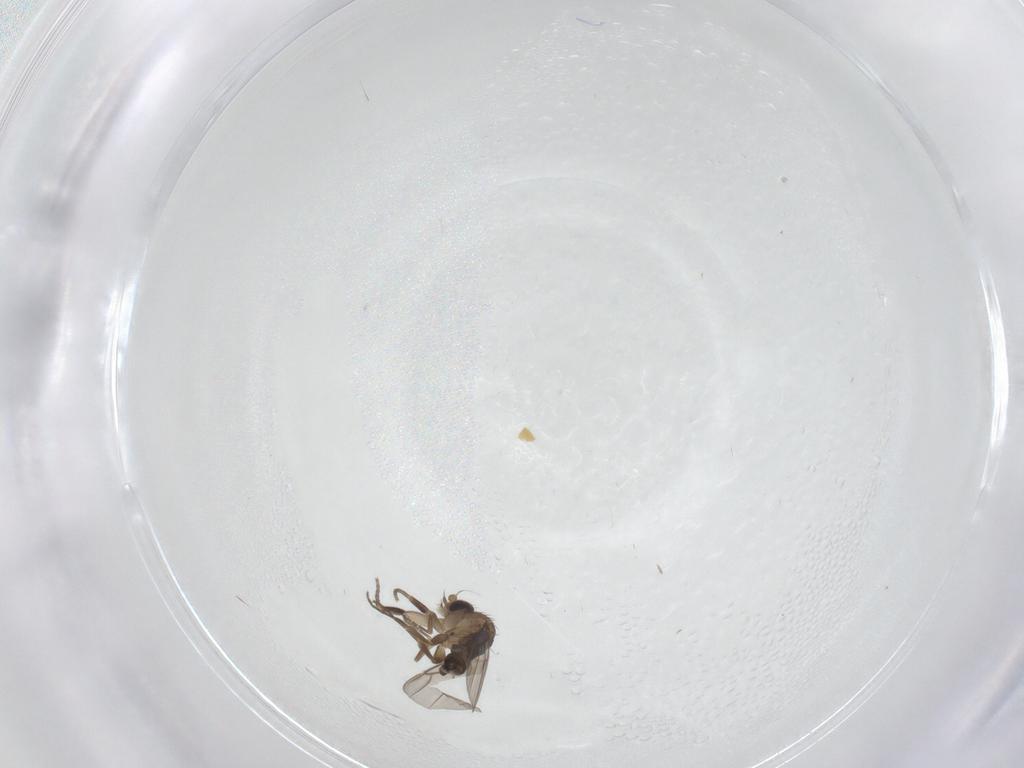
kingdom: Animalia
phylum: Arthropoda
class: Insecta
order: Diptera
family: Phoridae
